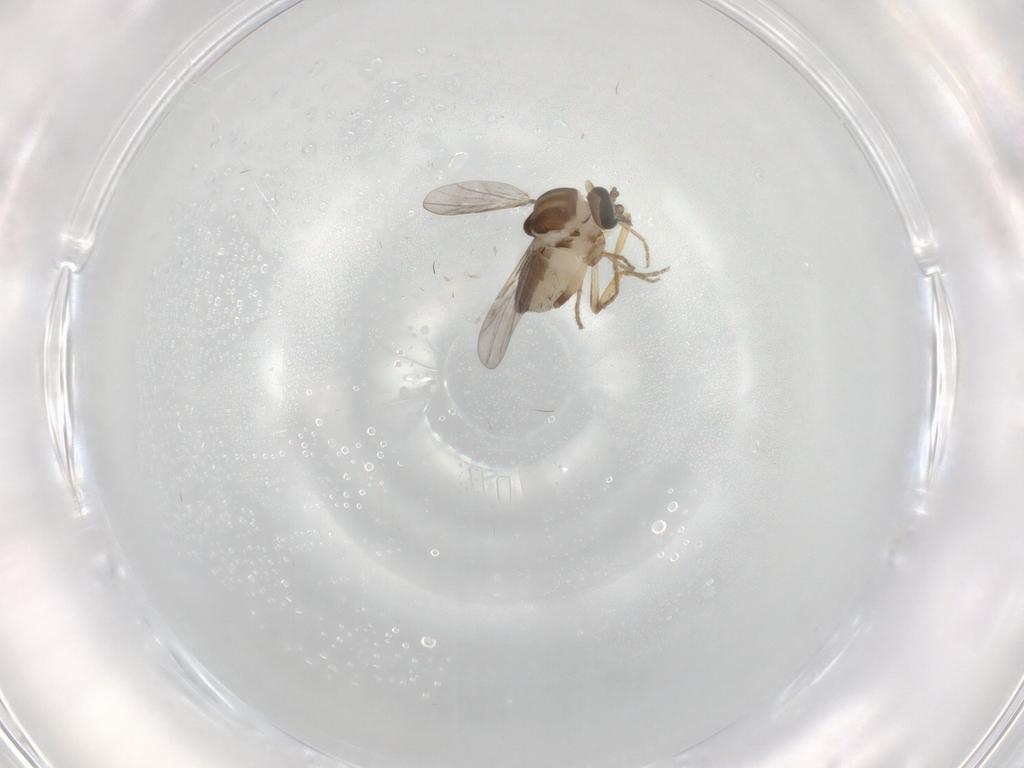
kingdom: Animalia
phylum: Arthropoda
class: Insecta
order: Diptera
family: Ceratopogonidae
